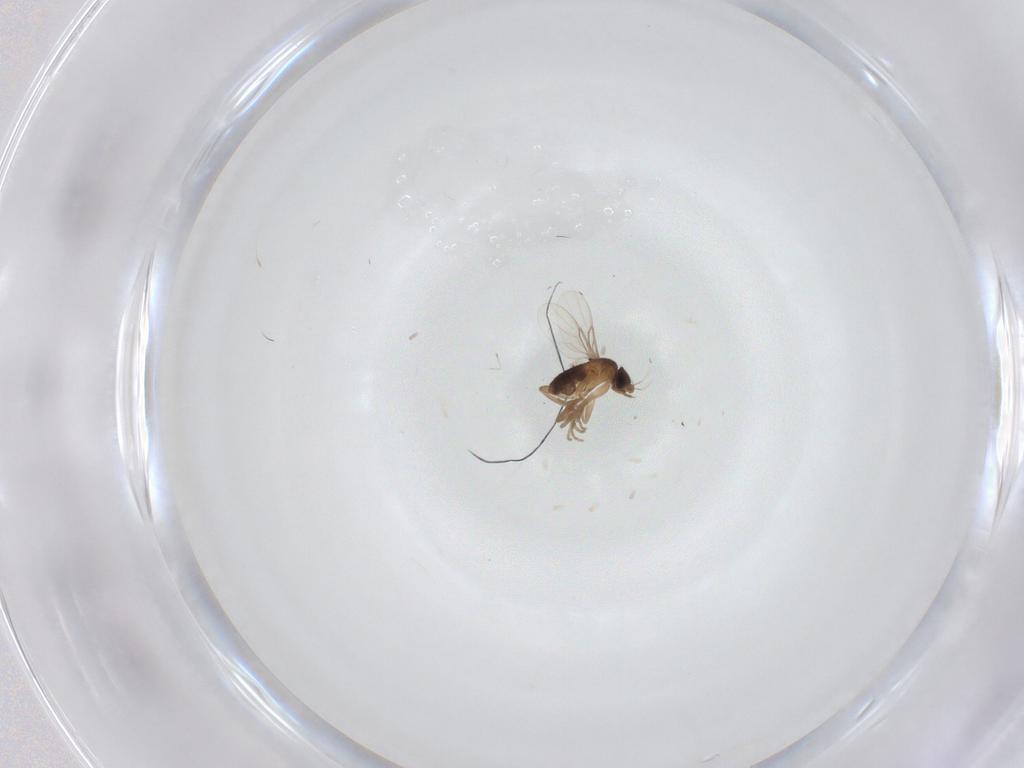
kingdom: Animalia
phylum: Arthropoda
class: Insecta
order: Diptera
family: Phoridae
